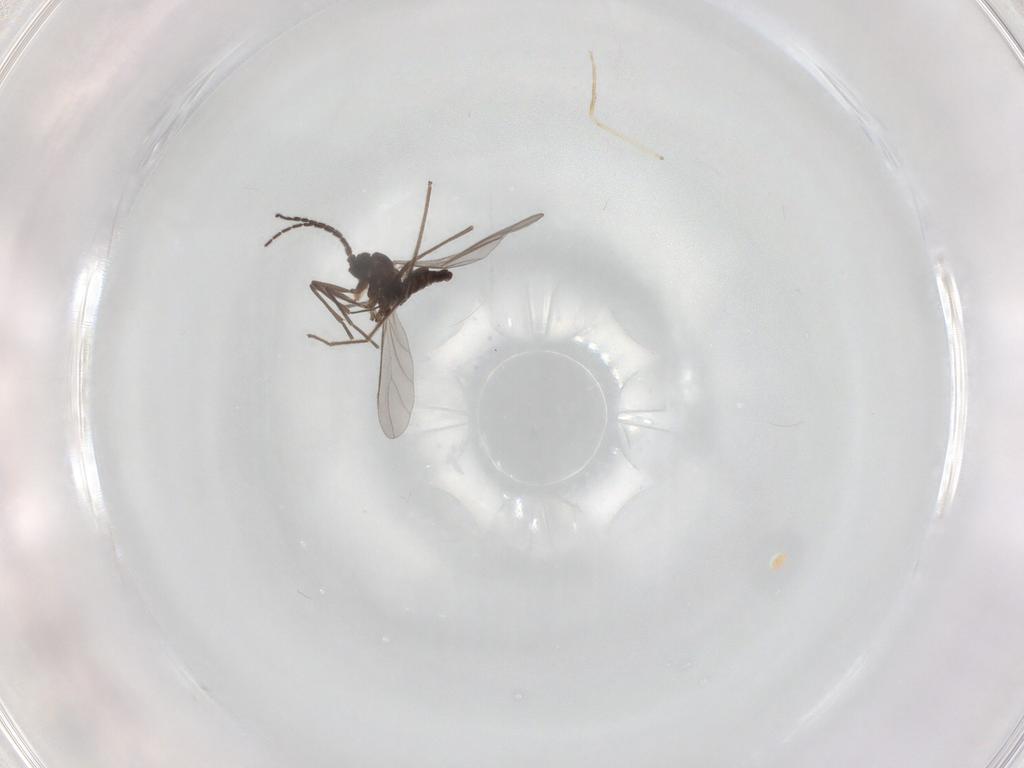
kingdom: Animalia
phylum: Arthropoda
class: Insecta
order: Diptera
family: Sciaridae
